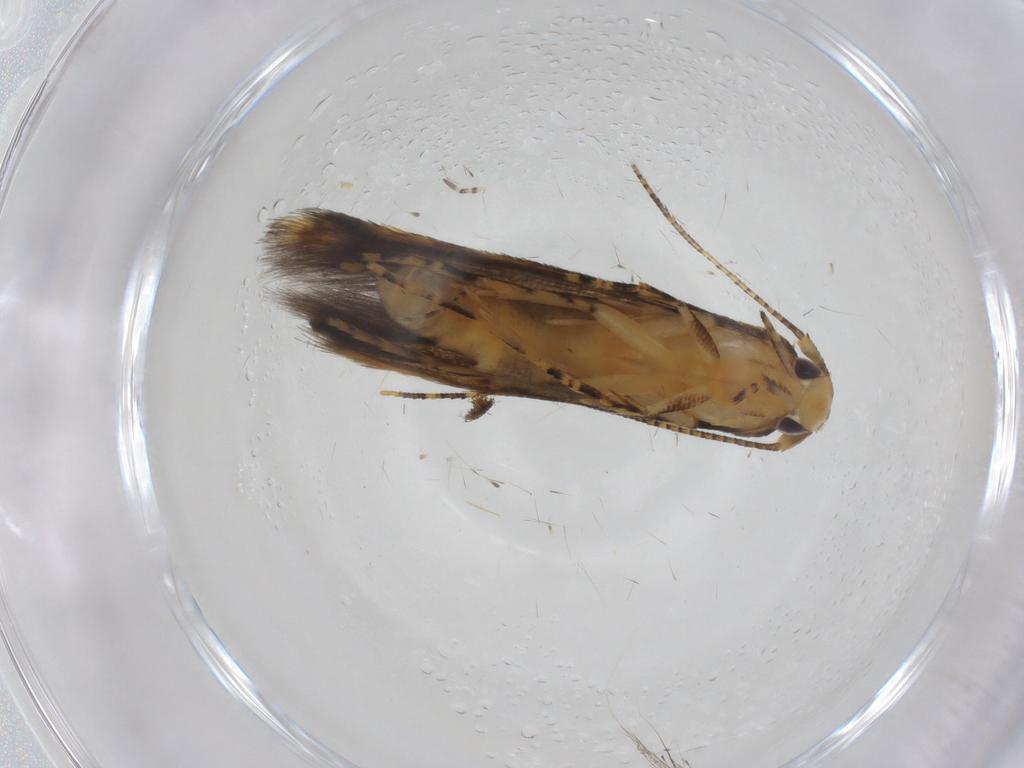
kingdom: Animalia
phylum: Arthropoda
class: Insecta
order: Lepidoptera
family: Erebidae
